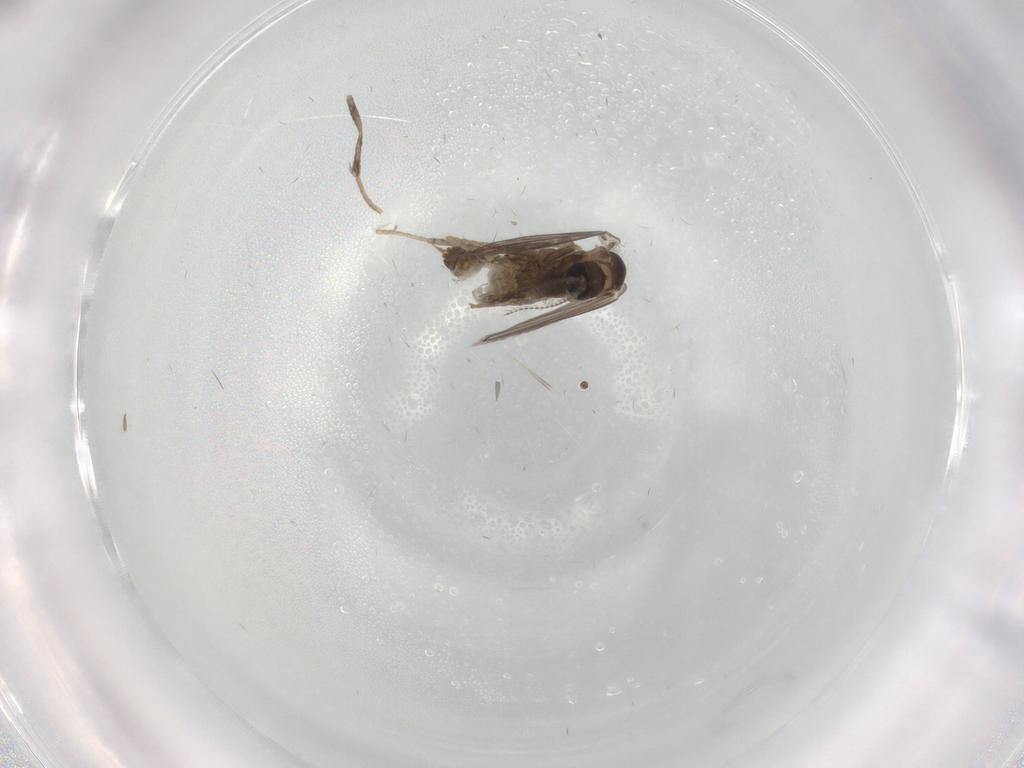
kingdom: Animalia
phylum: Arthropoda
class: Insecta
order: Diptera
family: Psychodidae
